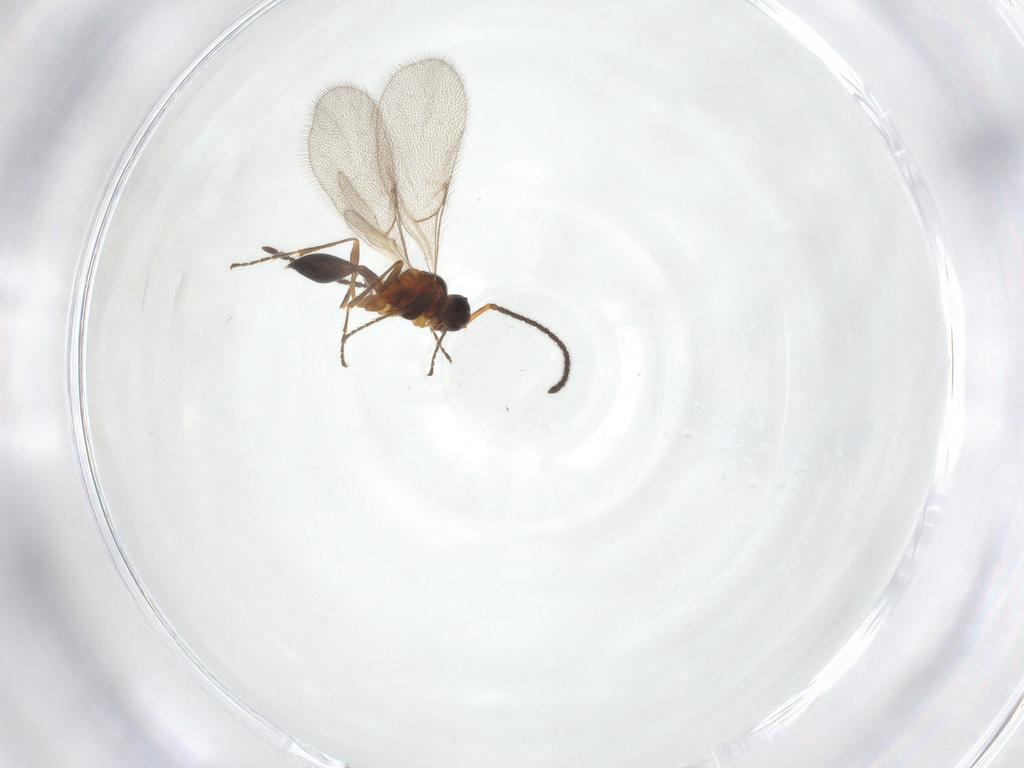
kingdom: Animalia
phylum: Arthropoda
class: Insecta
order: Hymenoptera
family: Diapriidae
